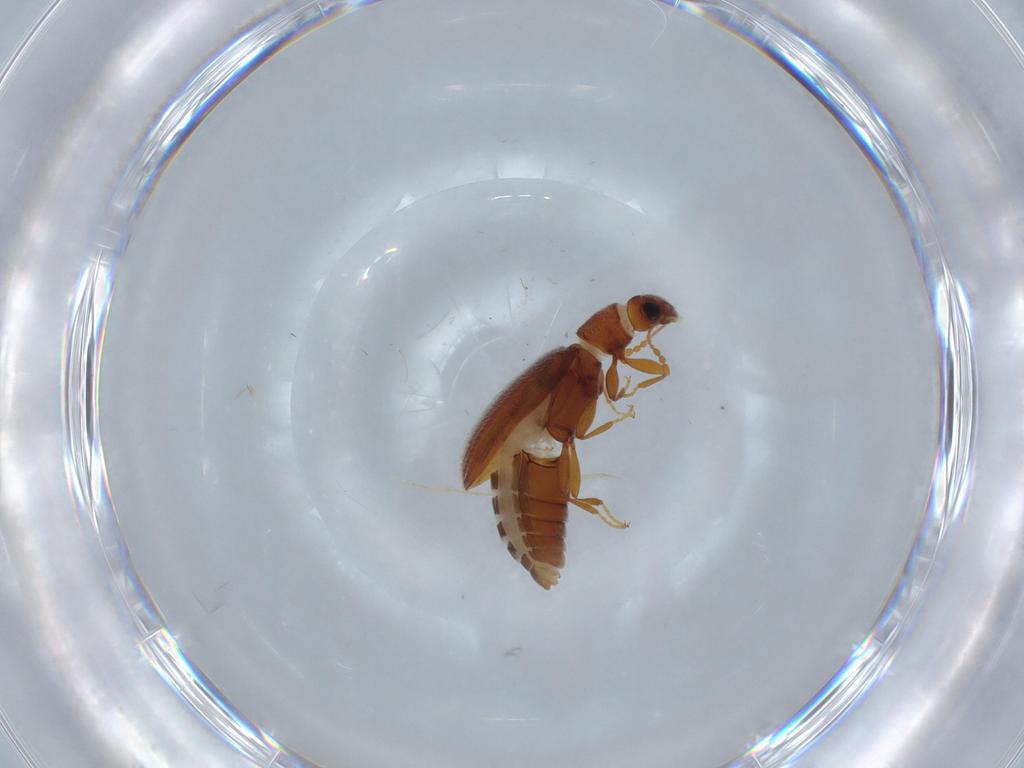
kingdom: Animalia
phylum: Arthropoda
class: Insecta
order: Coleoptera
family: Latridiidae
